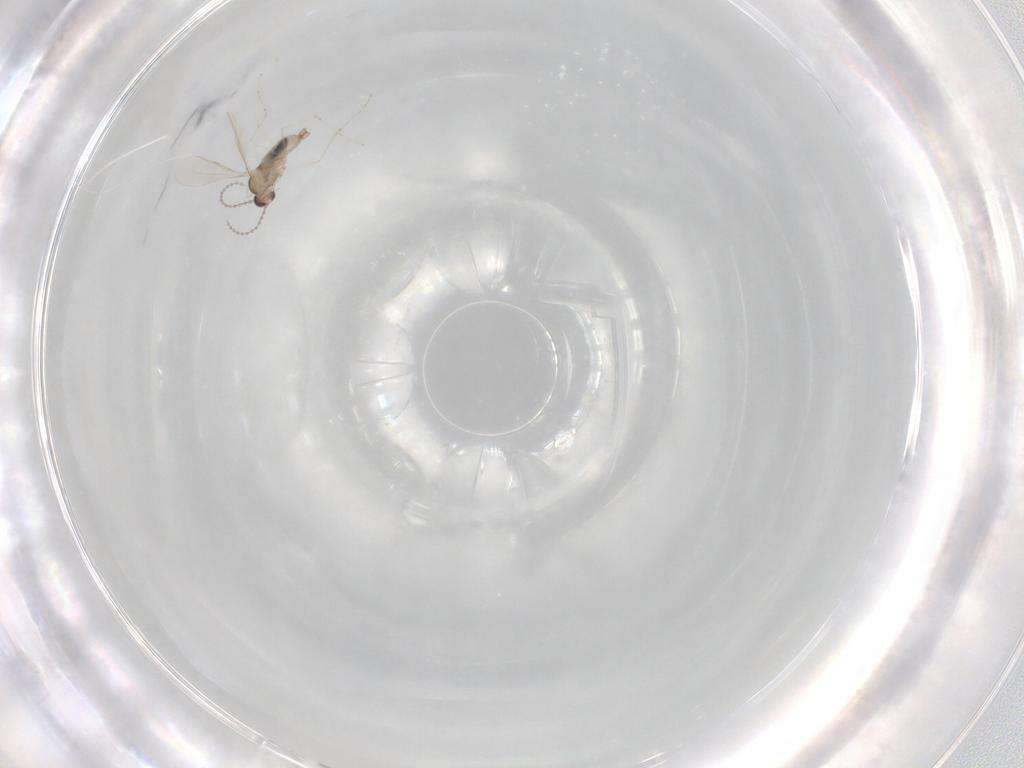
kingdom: Animalia
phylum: Arthropoda
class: Insecta
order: Diptera
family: Cecidomyiidae
